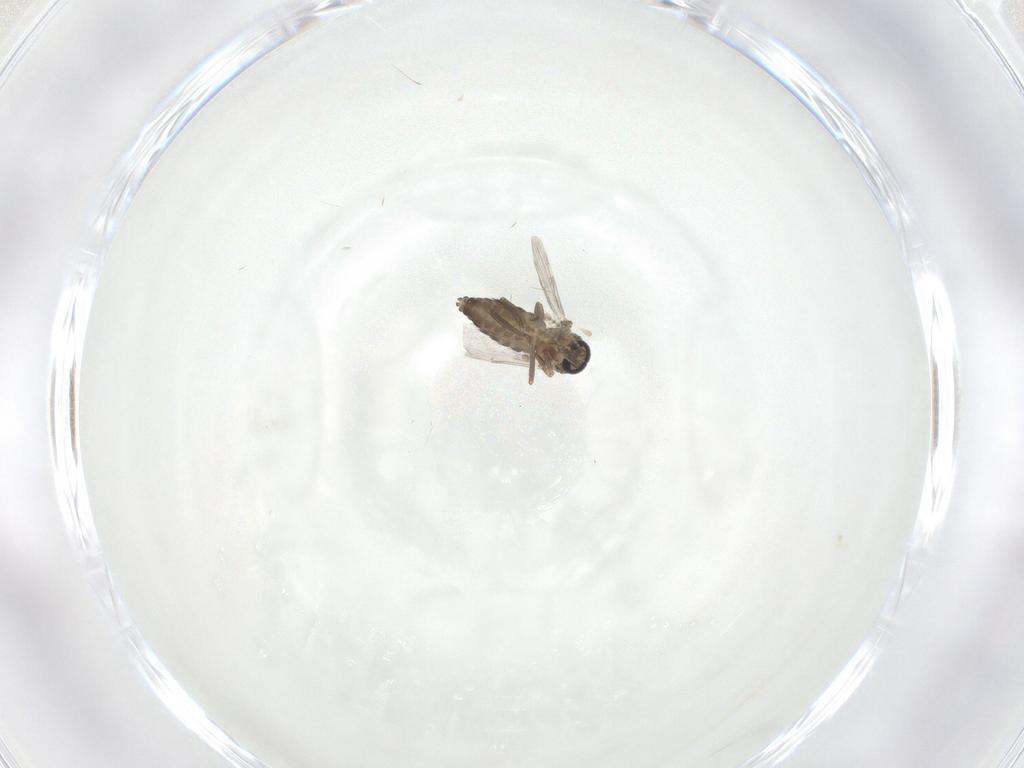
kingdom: Animalia
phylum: Arthropoda
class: Insecta
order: Diptera
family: Ceratopogonidae
